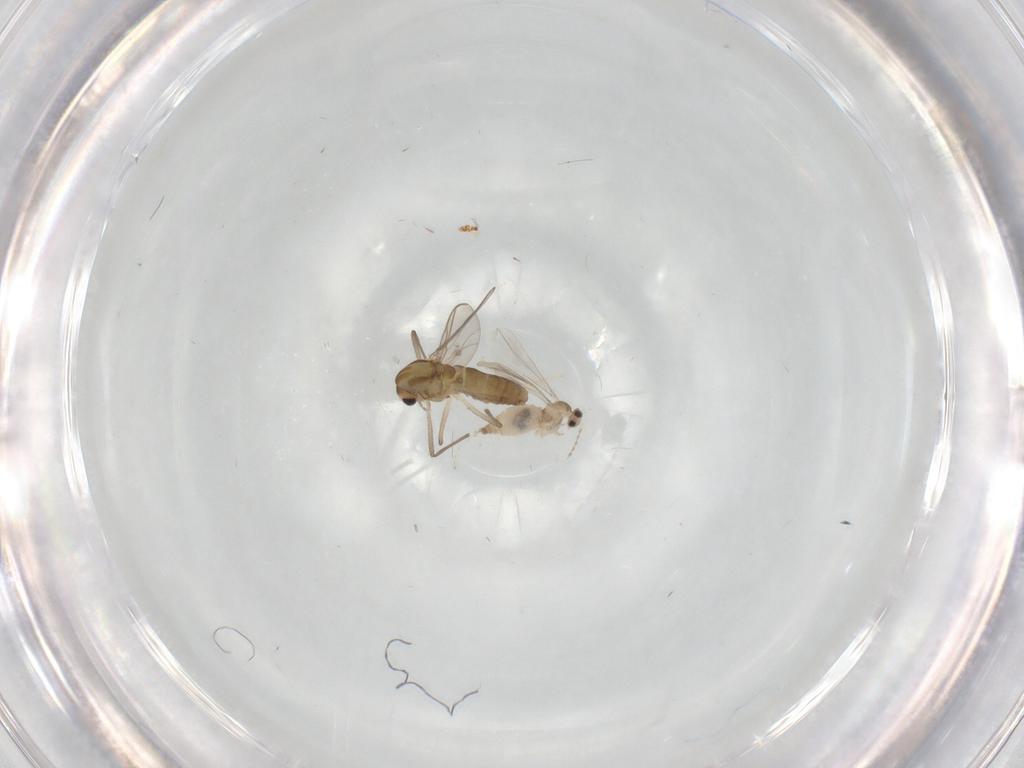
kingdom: Animalia
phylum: Arthropoda
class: Insecta
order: Diptera
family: Chironomidae
